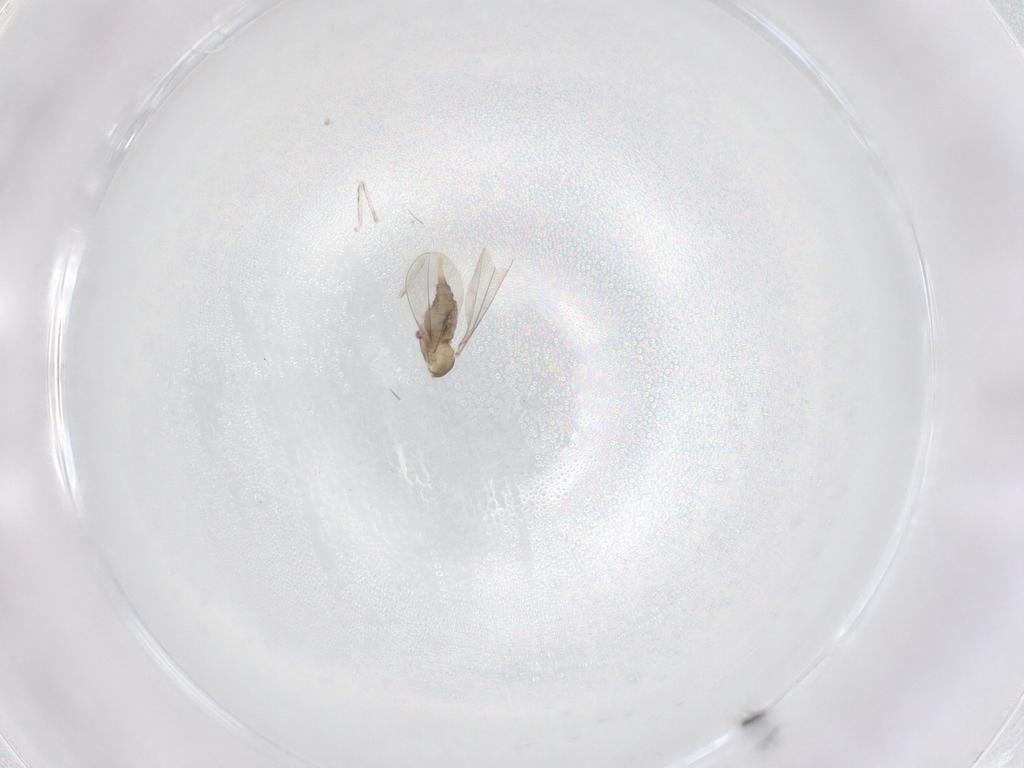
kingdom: Animalia
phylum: Arthropoda
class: Insecta
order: Diptera
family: Cecidomyiidae
